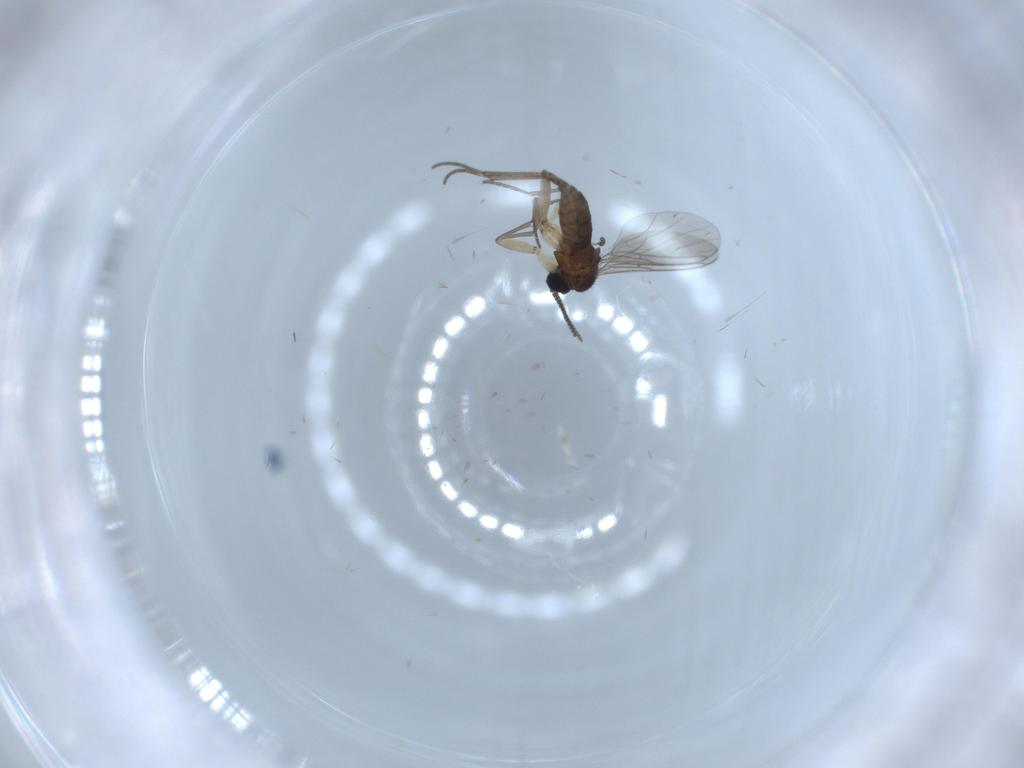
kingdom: Animalia
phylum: Arthropoda
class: Insecta
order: Diptera
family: Sciaridae
